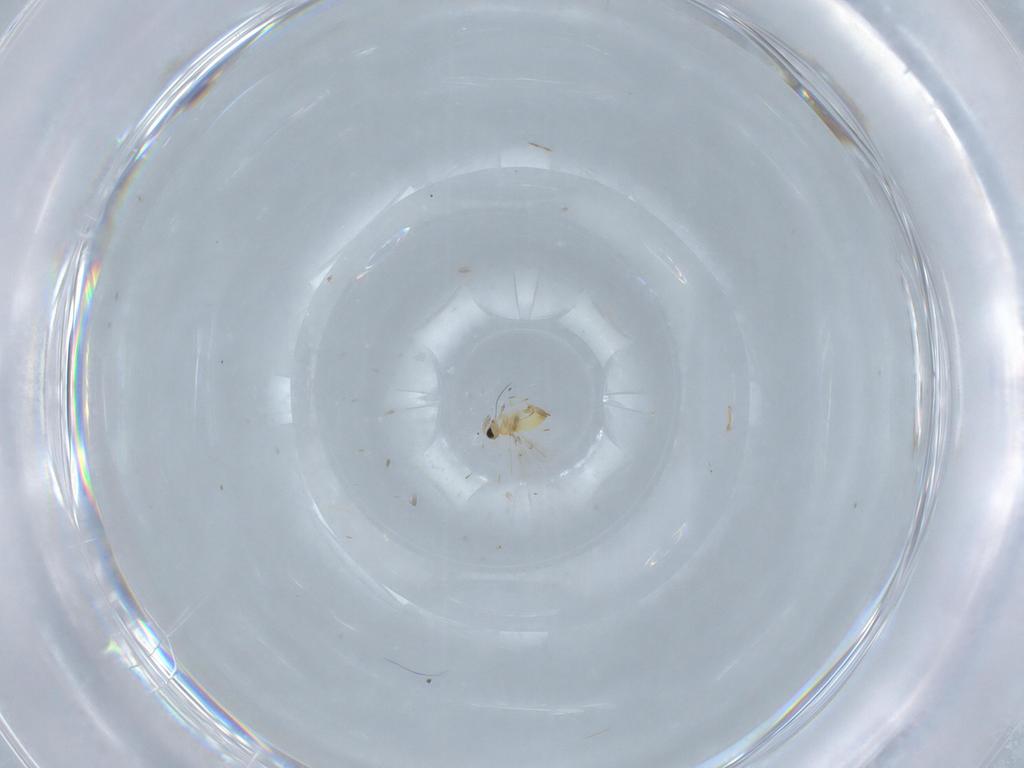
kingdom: Animalia
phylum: Arthropoda
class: Insecta
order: Hymenoptera
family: Trichogrammatidae
